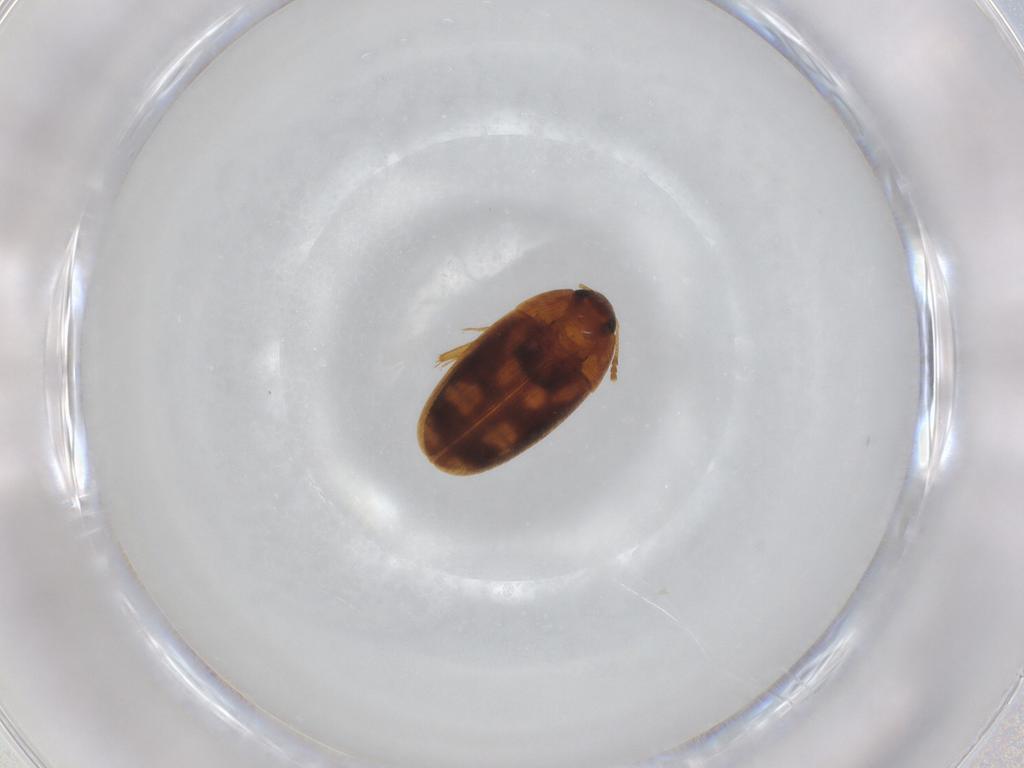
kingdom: Animalia
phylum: Arthropoda
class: Insecta
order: Coleoptera
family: Mycetophagidae
